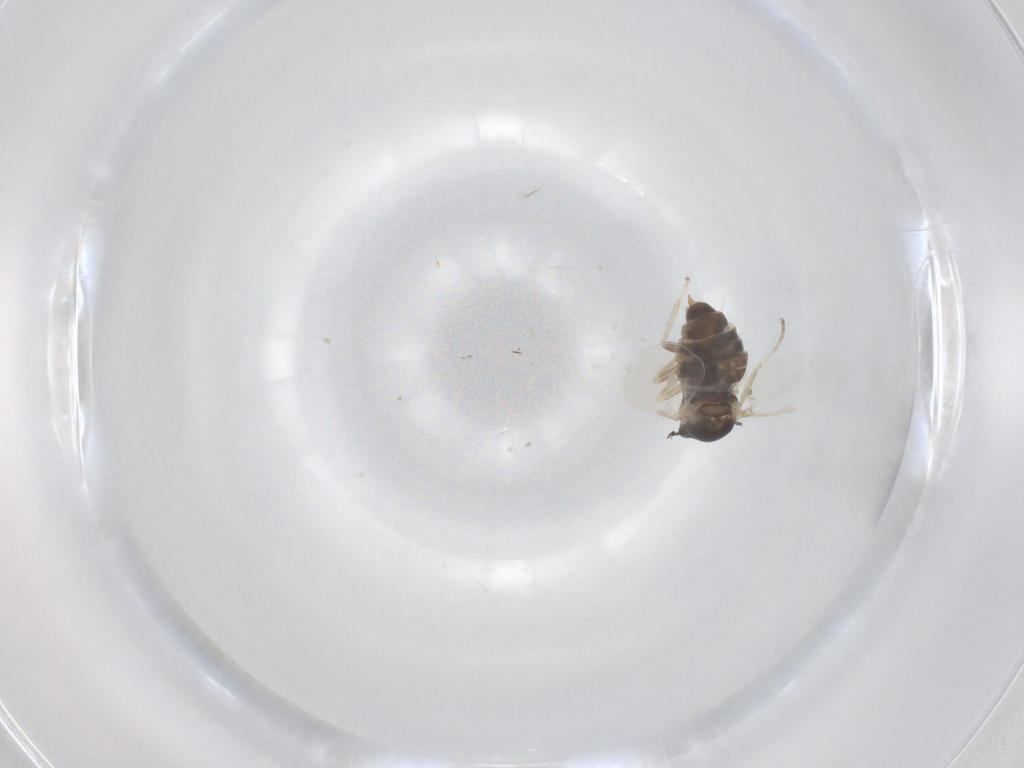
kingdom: Animalia
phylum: Arthropoda
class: Insecta
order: Diptera
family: Cecidomyiidae
